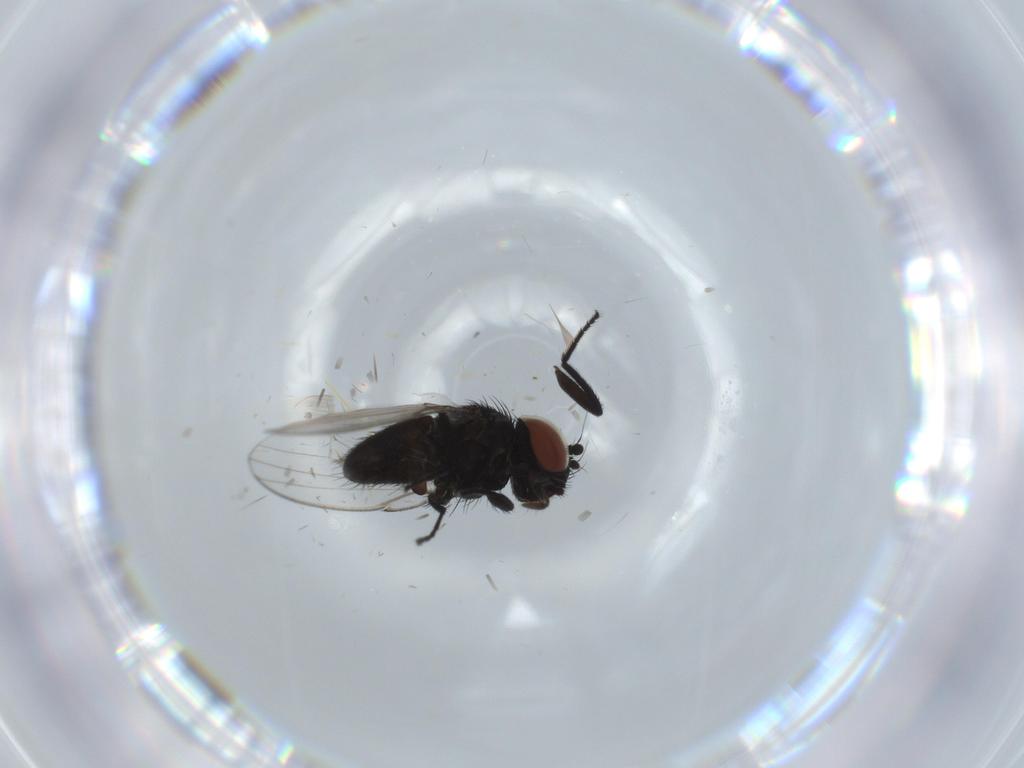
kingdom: Animalia
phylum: Arthropoda
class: Insecta
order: Diptera
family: Milichiidae
